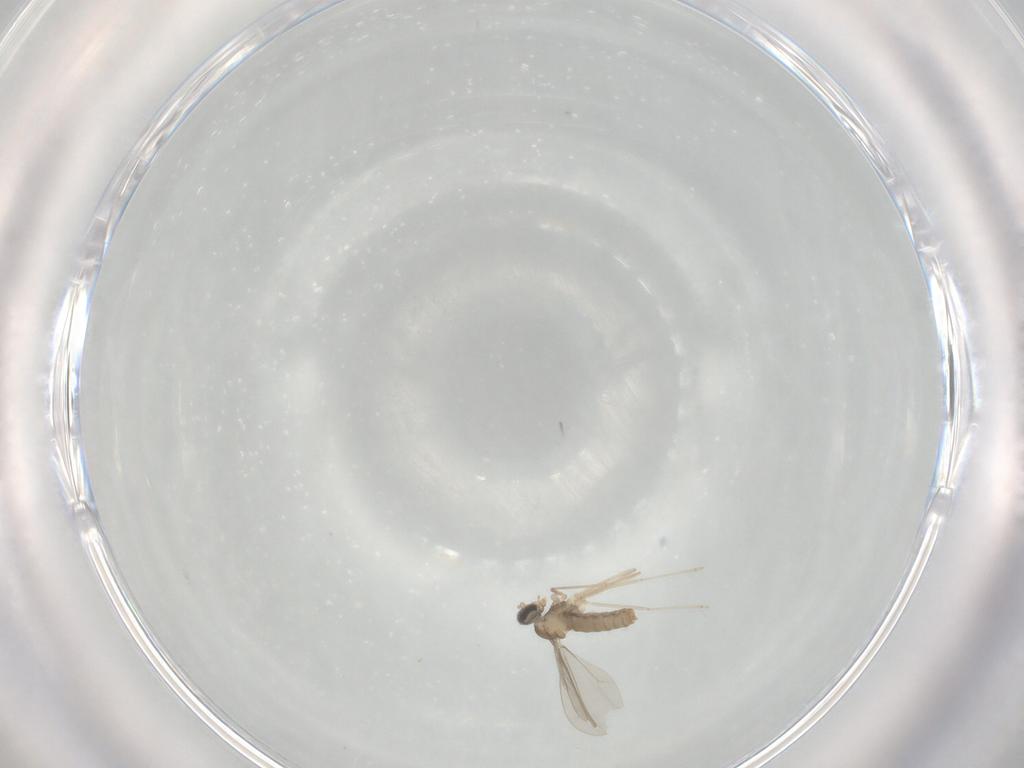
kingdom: Animalia
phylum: Arthropoda
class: Insecta
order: Diptera
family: Cecidomyiidae
